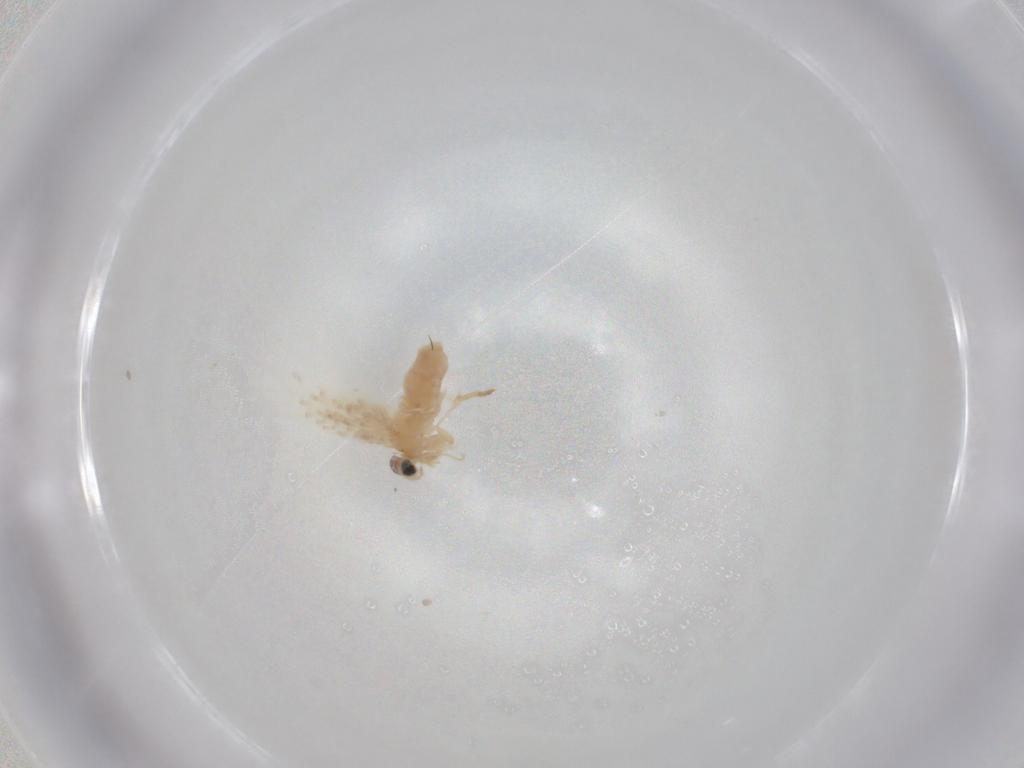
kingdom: Animalia
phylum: Arthropoda
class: Insecta
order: Lepidoptera
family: Nepticulidae
